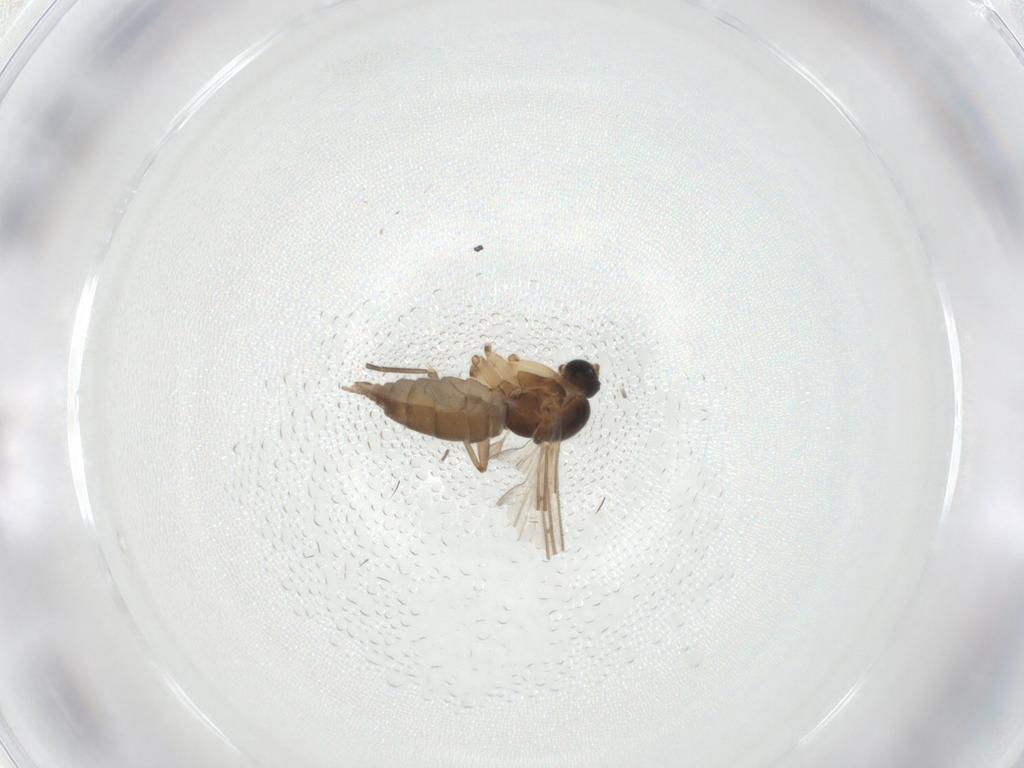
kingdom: Animalia
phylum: Arthropoda
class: Insecta
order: Diptera
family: Sciaridae
